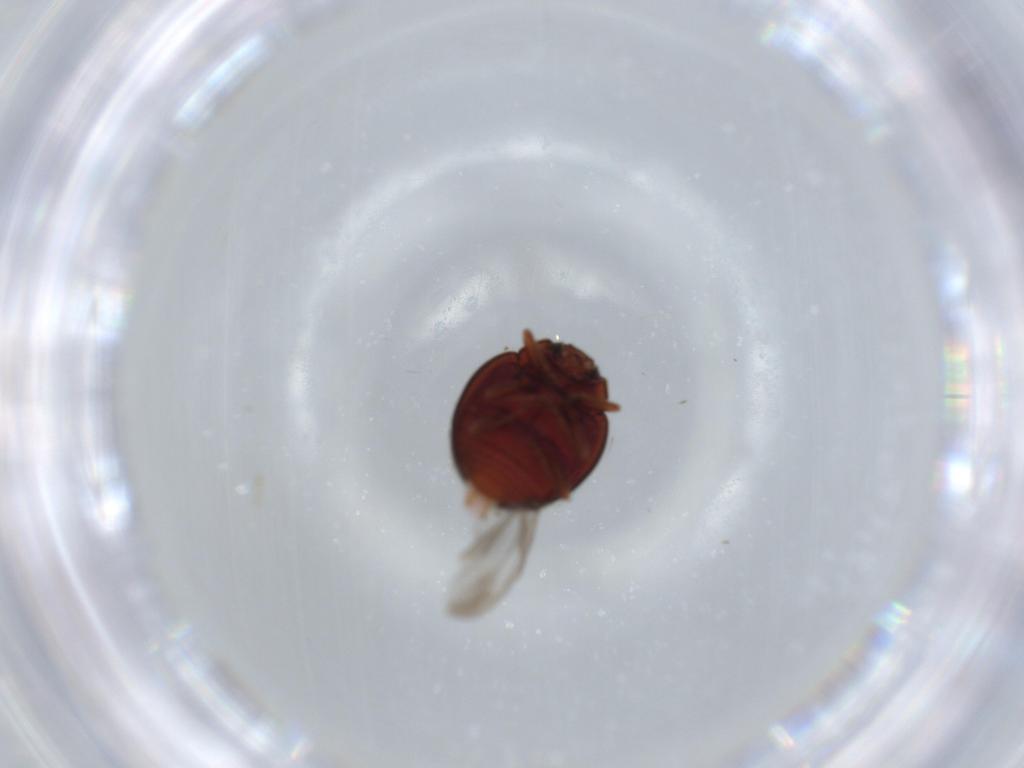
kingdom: Animalia
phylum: Arthropoda
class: Insecta
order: Coleoptera
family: Coccinellidae
